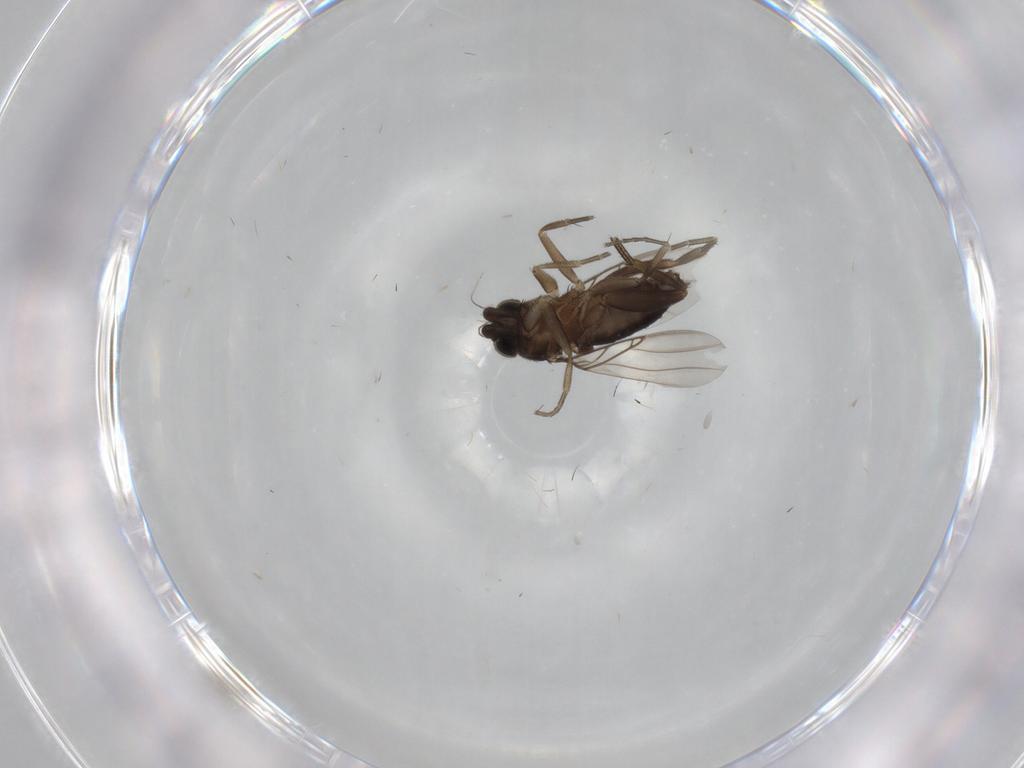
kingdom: Animalia
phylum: Arthropoda
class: Insecta
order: Diptera
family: Phoridae
